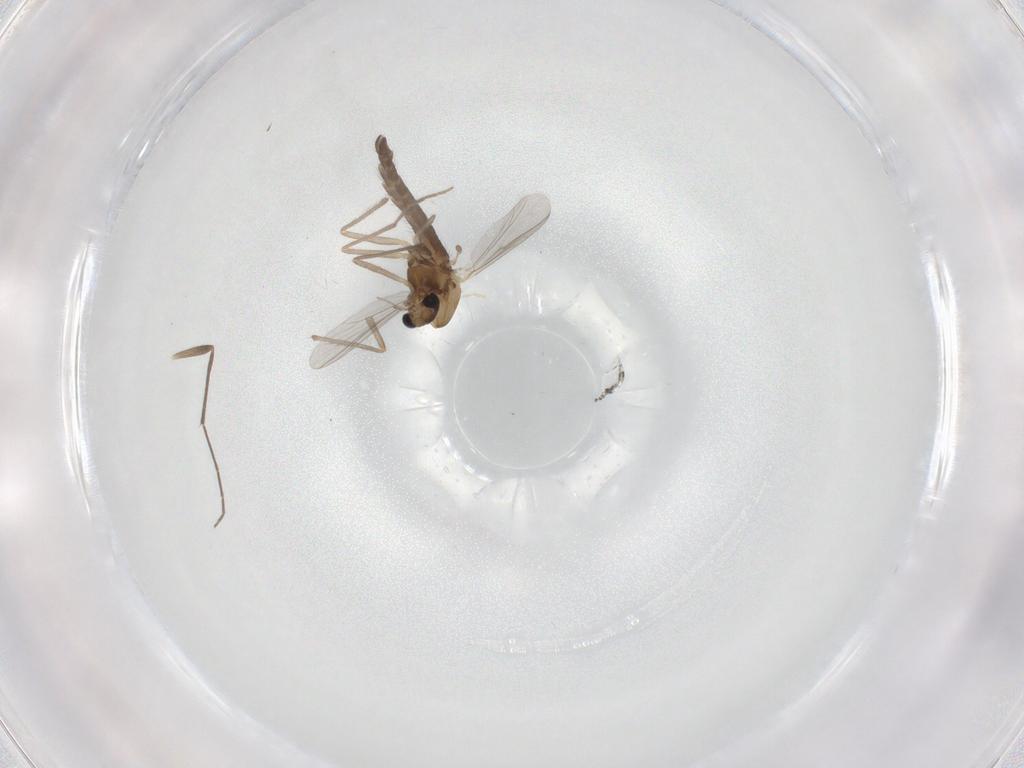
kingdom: Animalia
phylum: Arthropoda
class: Insecta
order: Diptera
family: Chironomidae
